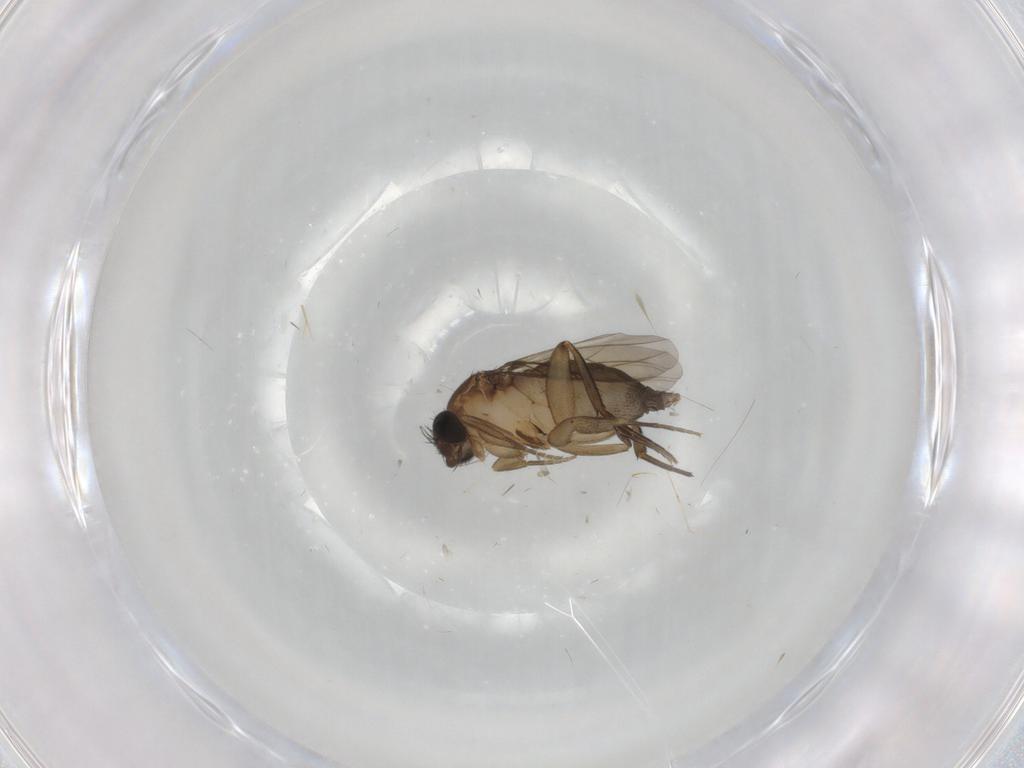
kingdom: Animalia
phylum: Arthropoda
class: Insecta
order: Diptera
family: Phoridae
